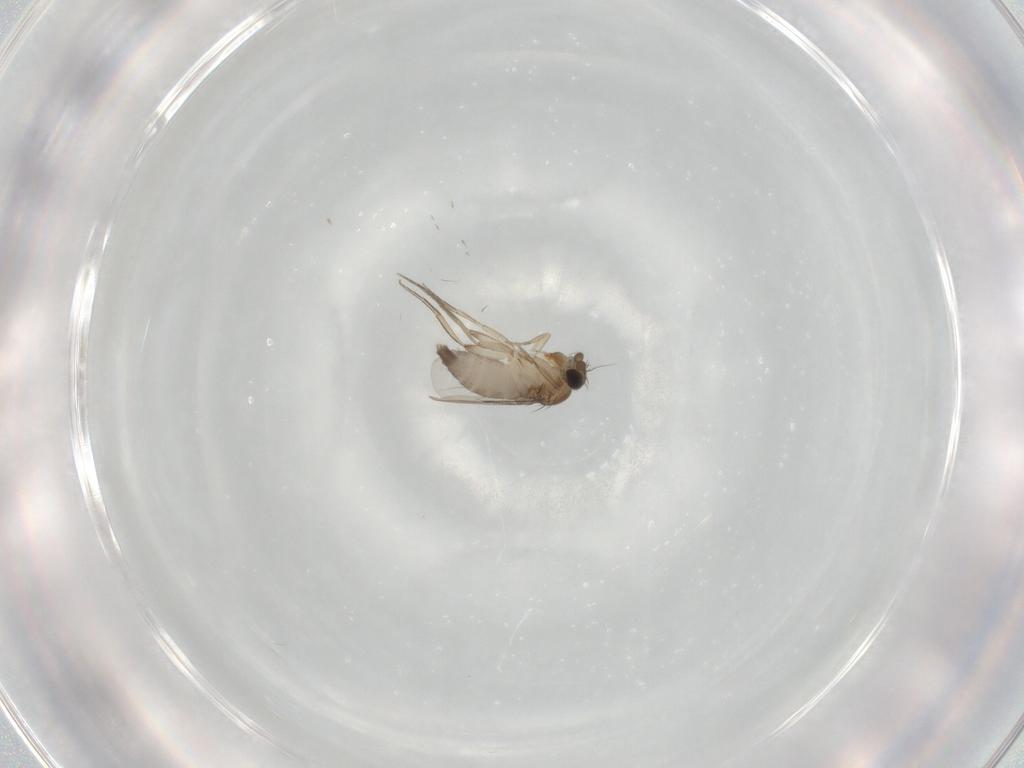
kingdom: Animalia
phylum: Arthropoda
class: Insecta
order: Diptera
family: Phoridae
